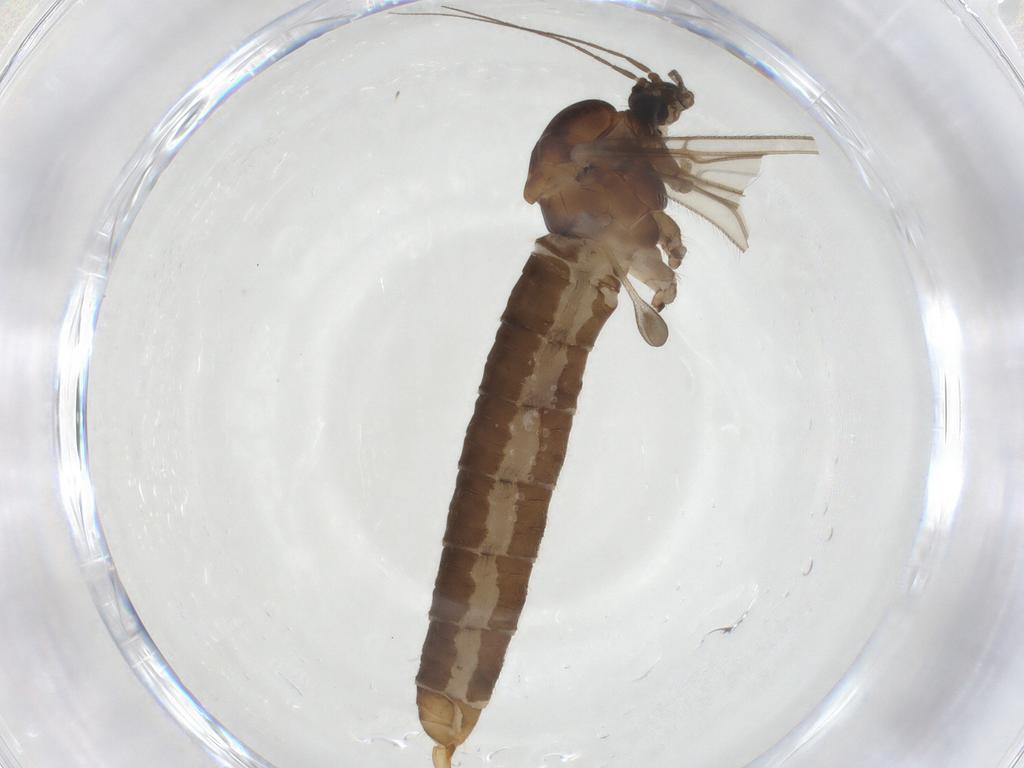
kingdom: Animalia
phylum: Arthropoda
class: Insecta
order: Diptera
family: Trichoceridae
